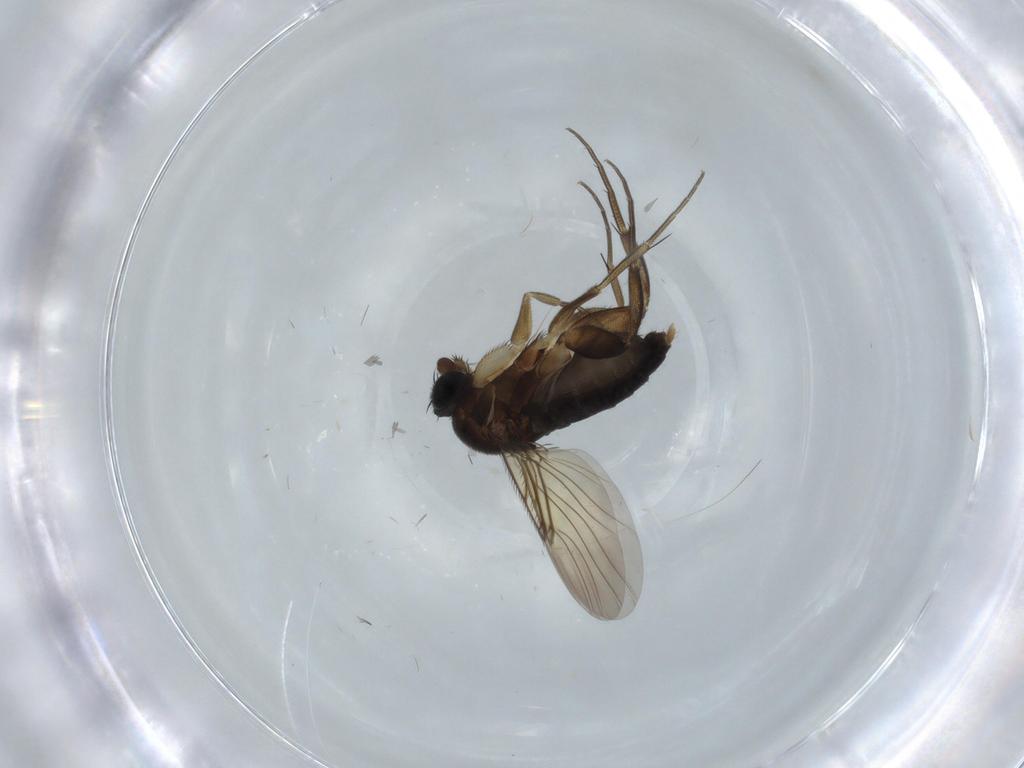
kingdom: Animalia
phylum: Arthropoda
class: Insecta
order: Diptera
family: Phoridae
